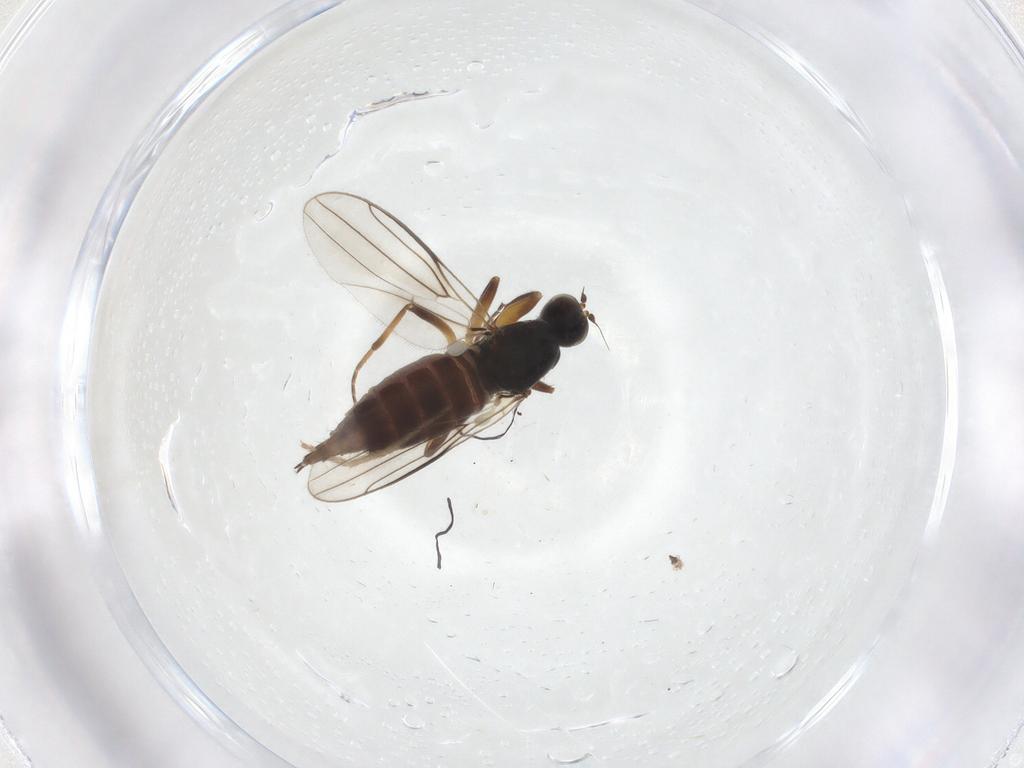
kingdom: Animalia
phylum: Arthropoda
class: Insecta
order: Diptera
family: Hybotidae
